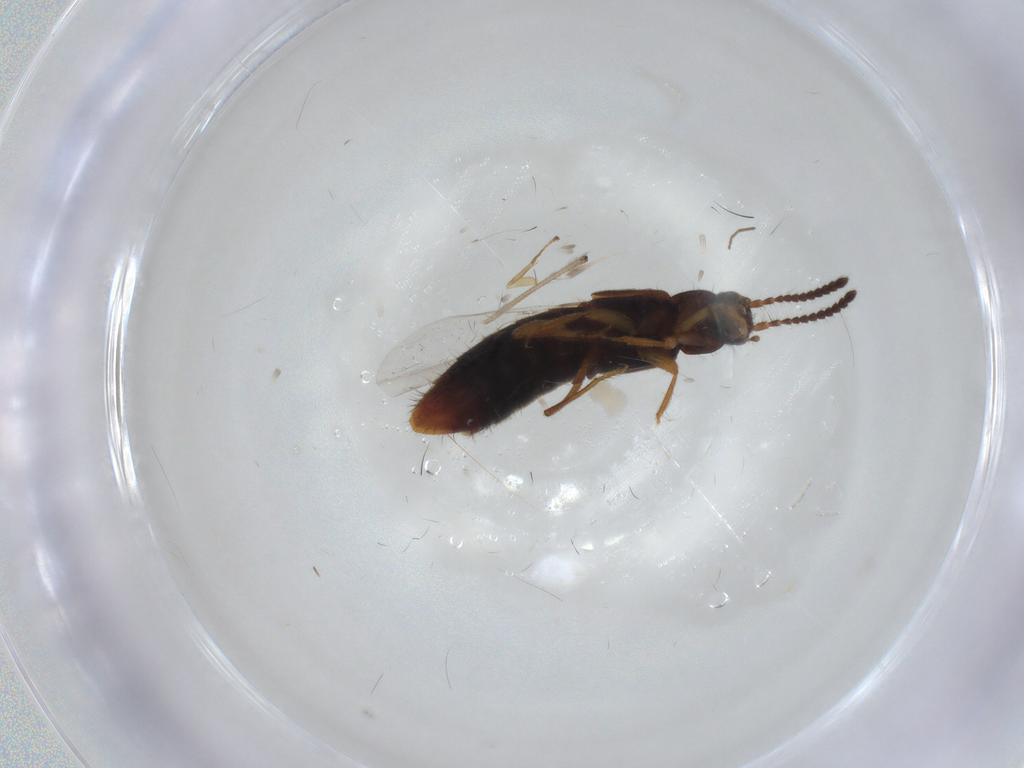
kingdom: Animalia
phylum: Arthropoda
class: Insecta
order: Coleoptera
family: Staphylinidae
